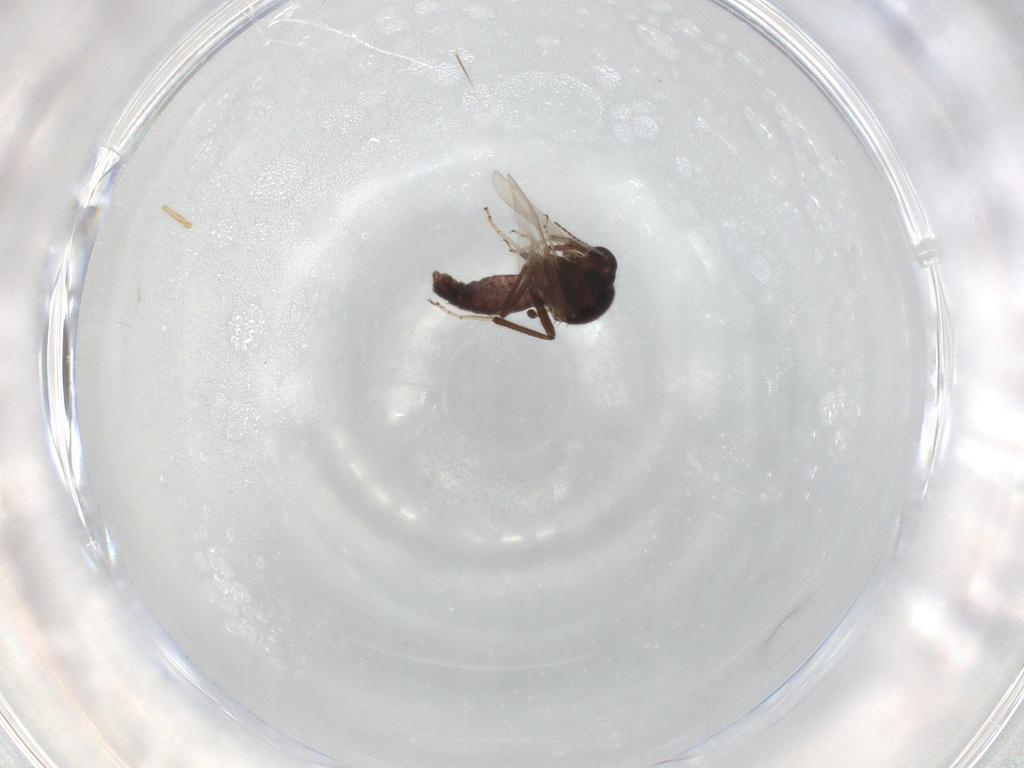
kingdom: Animalia
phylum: Arthropoda
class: Insecta
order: Diptera
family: Ceratopogonidae
